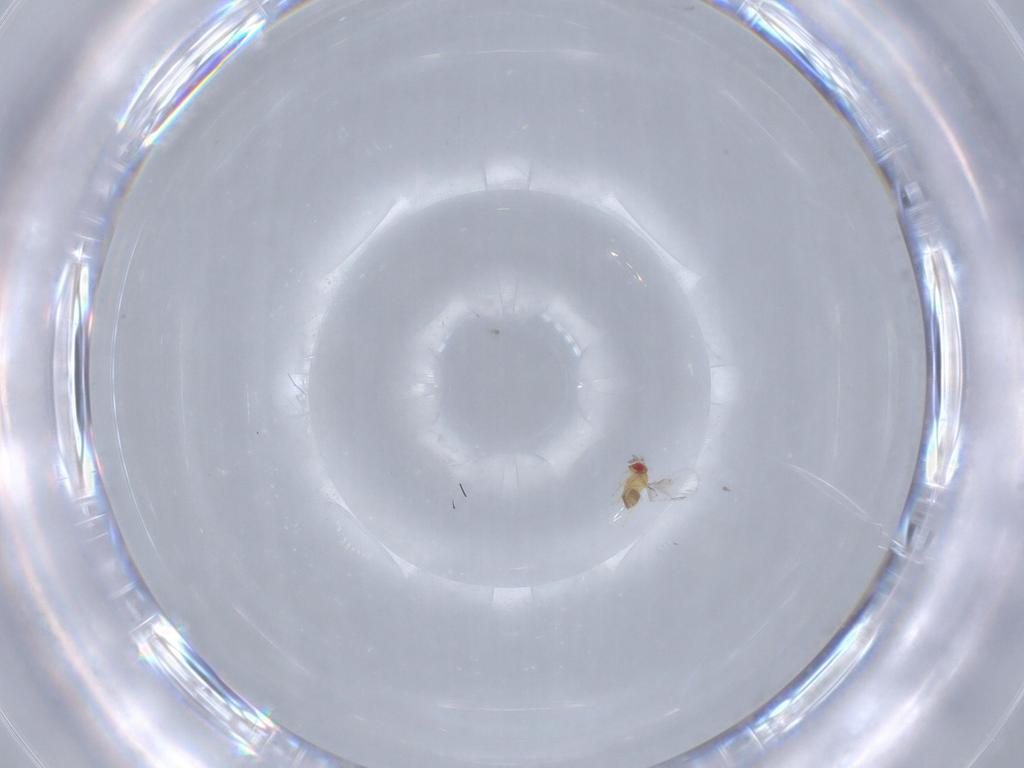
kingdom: Animalia
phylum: Arthropoda
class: Insecta
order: Hymenoptera
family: Trichogrammatidae
